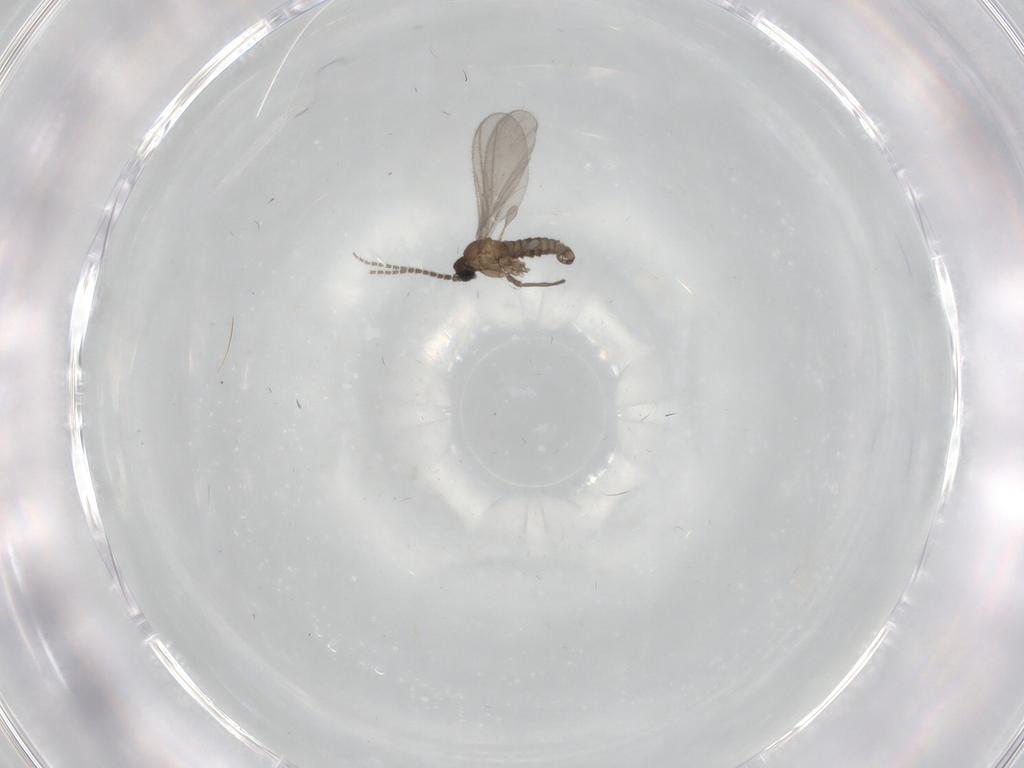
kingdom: Animalia
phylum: Arthropoda
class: Insecta
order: Diptera
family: Sciaridae
